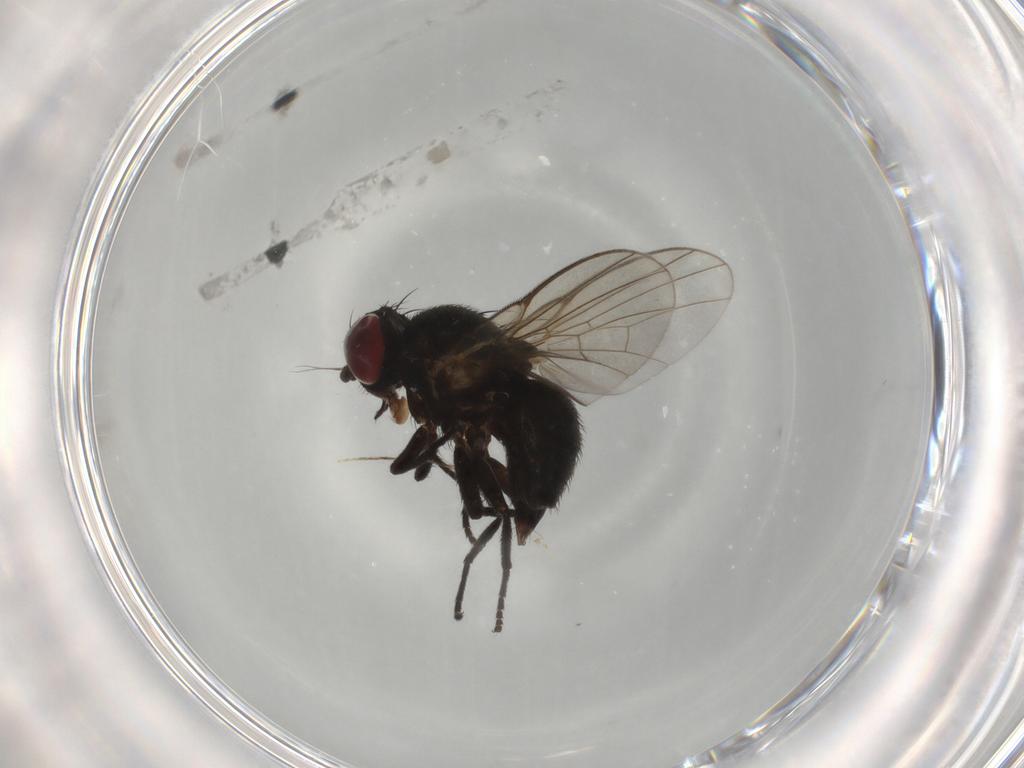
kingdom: Animalia
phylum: Arthropoda
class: Insecta
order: Diptera
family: Agromyzidae
